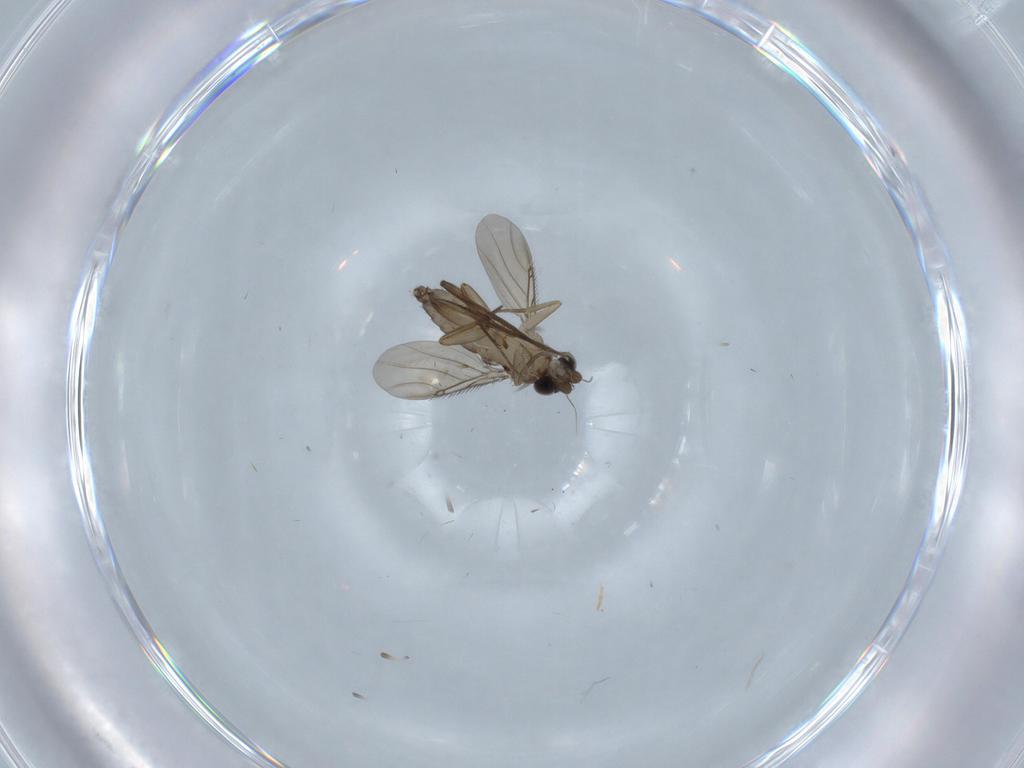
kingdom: Animalia
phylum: Arthropoda
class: Insecta
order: Diptera
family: Phoridae
